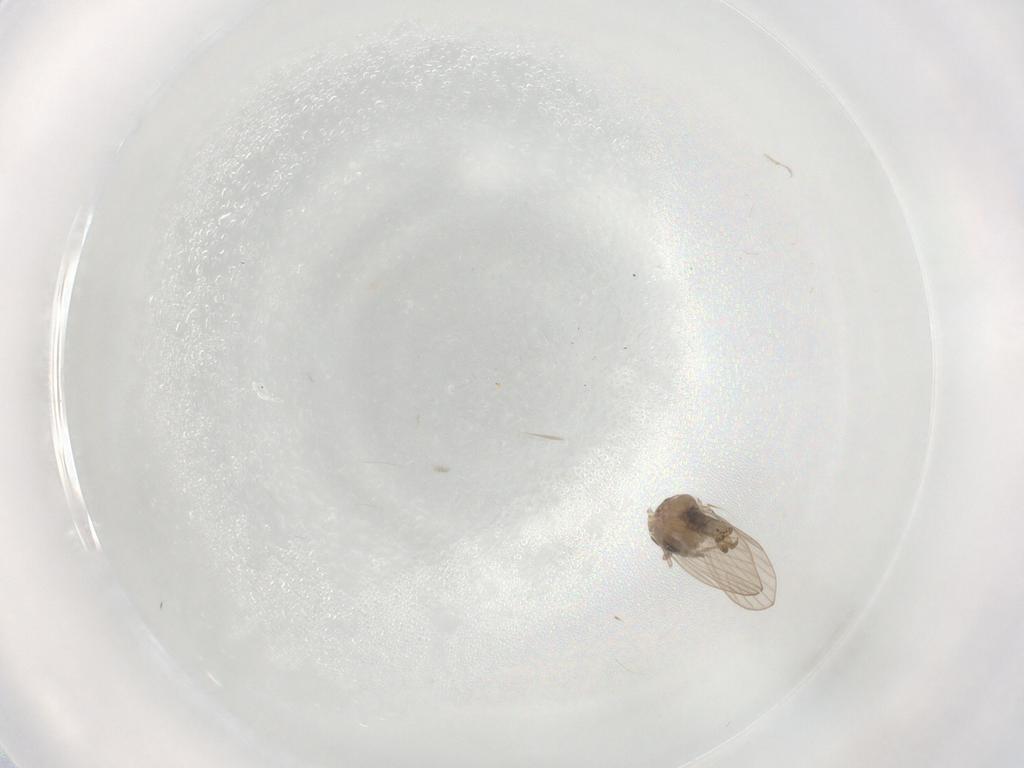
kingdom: Animalia
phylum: Arthropoda
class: Insecta
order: Diptera
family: Psychodidae
